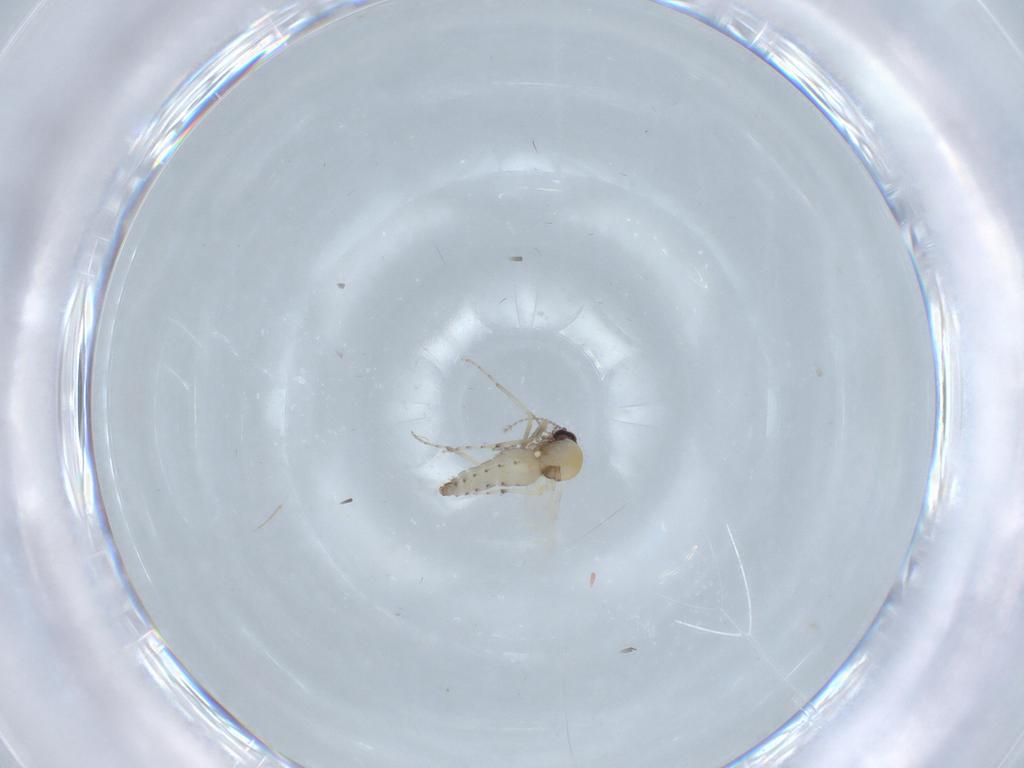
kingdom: Animalia
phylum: Arthropoda
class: Insecta
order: Diptera
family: Ceratopogonidae
